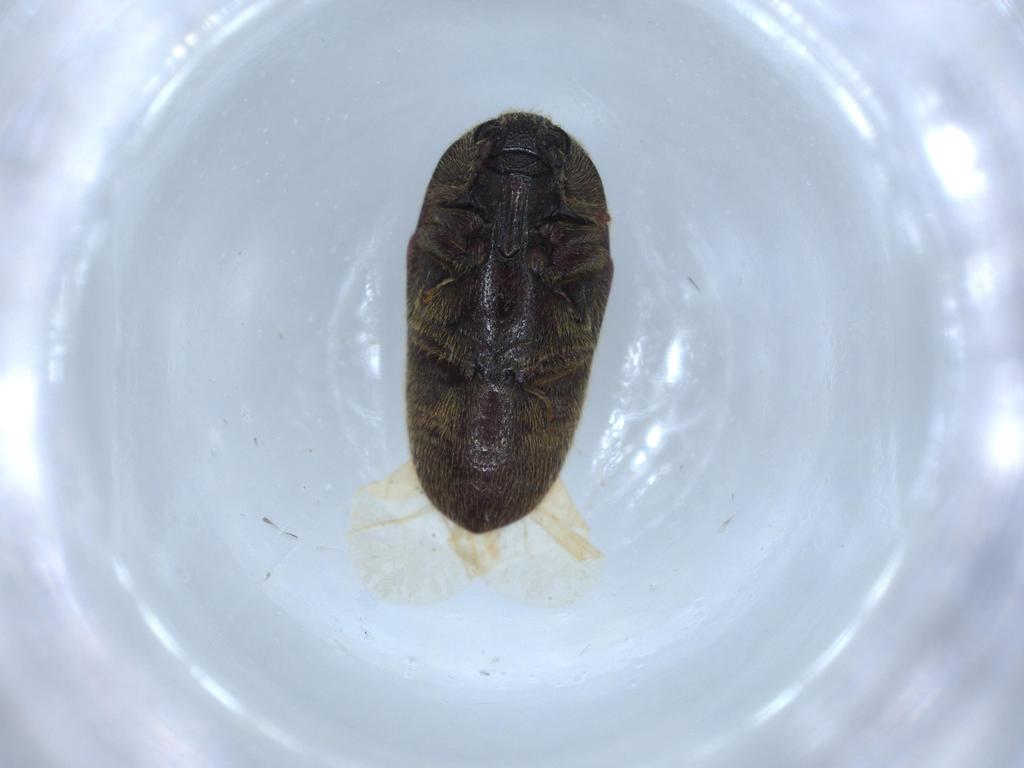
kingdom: Animalia
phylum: Arthropoda
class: Insecta
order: Coleoptera
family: Throscidae
